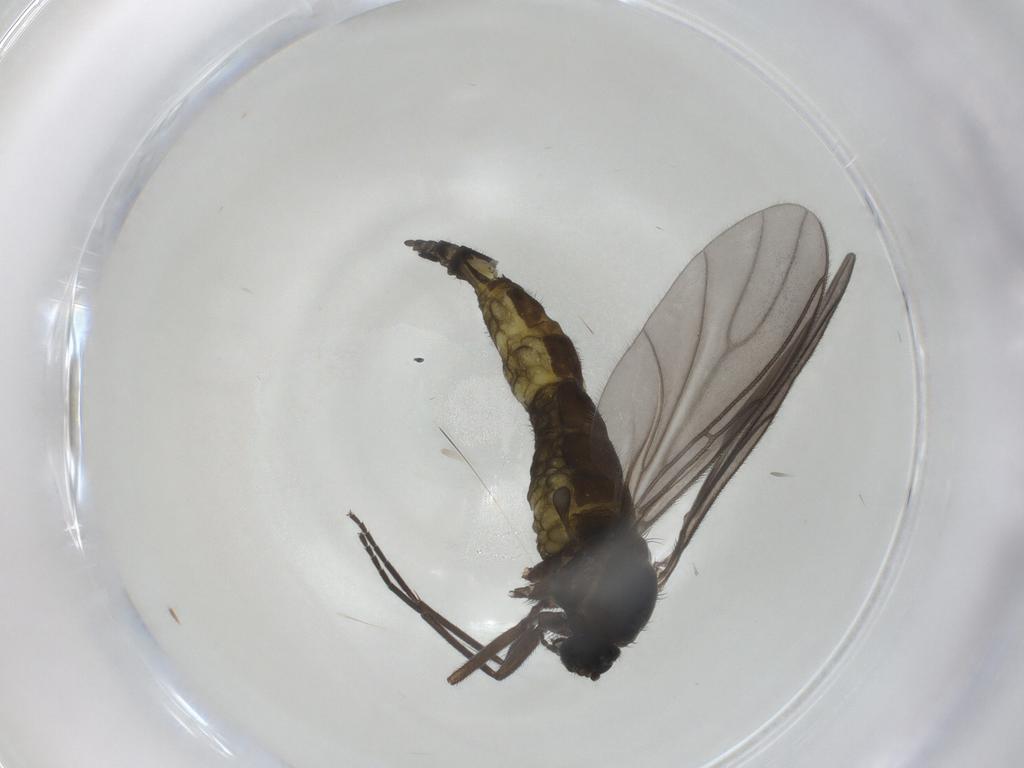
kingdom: Animalia
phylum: Arthropoda
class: Insecta
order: Diptera
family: Sciaridae
